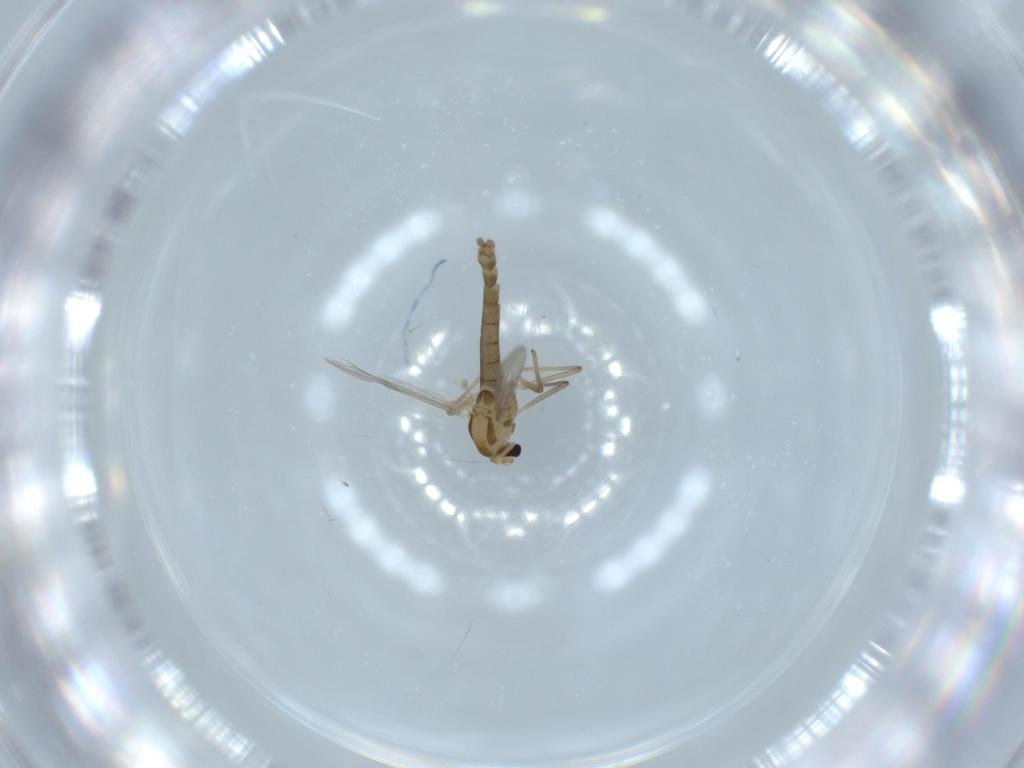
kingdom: Animalia
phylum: Arthropoda
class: Insecta
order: Diptera
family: Chironomidae
